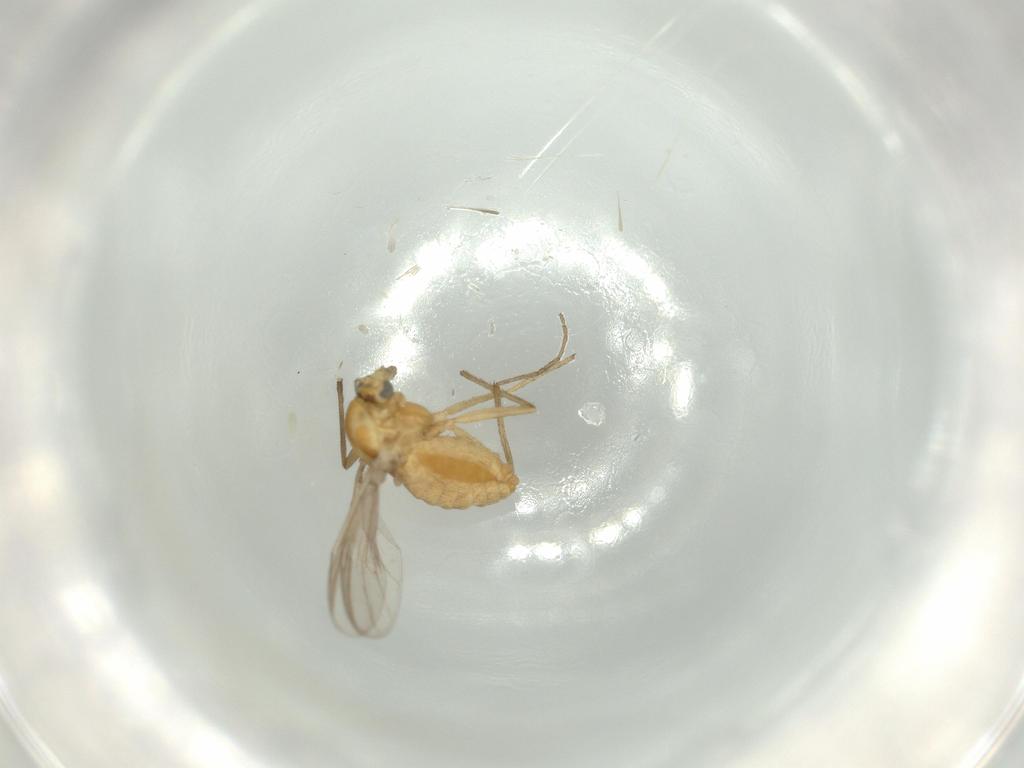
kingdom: Animalia
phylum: Arthropoda
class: Insecta
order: Diptera
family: Chironomidae
